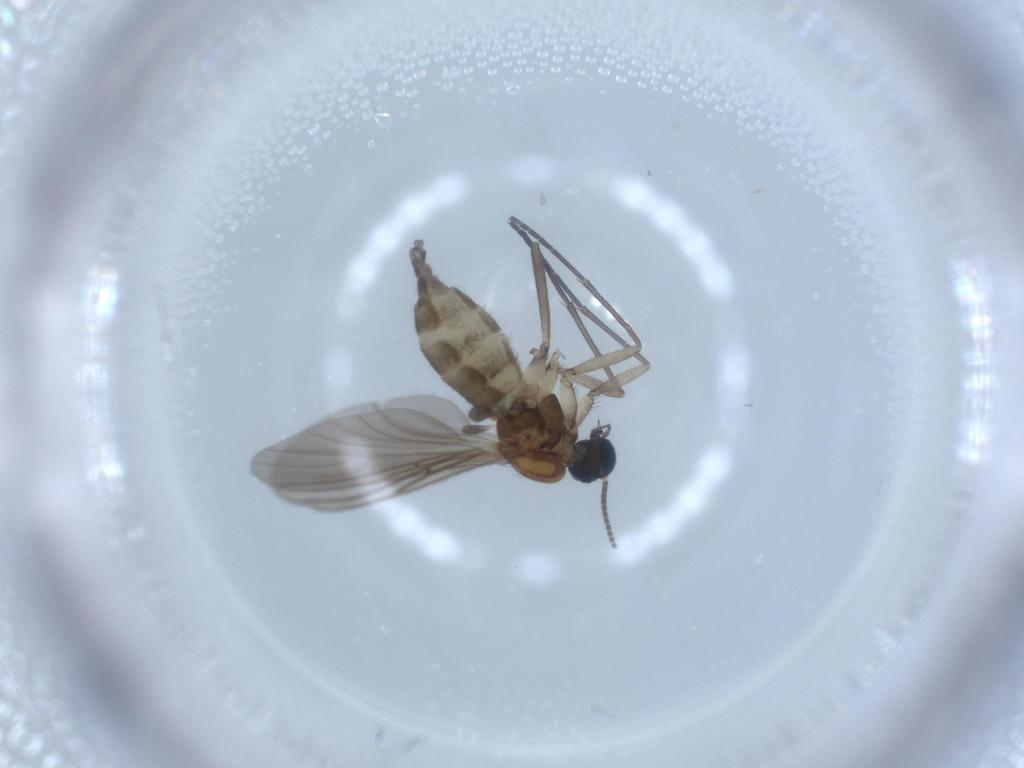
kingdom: Animalia
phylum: Arthropoda
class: Insecta
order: Diptera
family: Sciaridae
